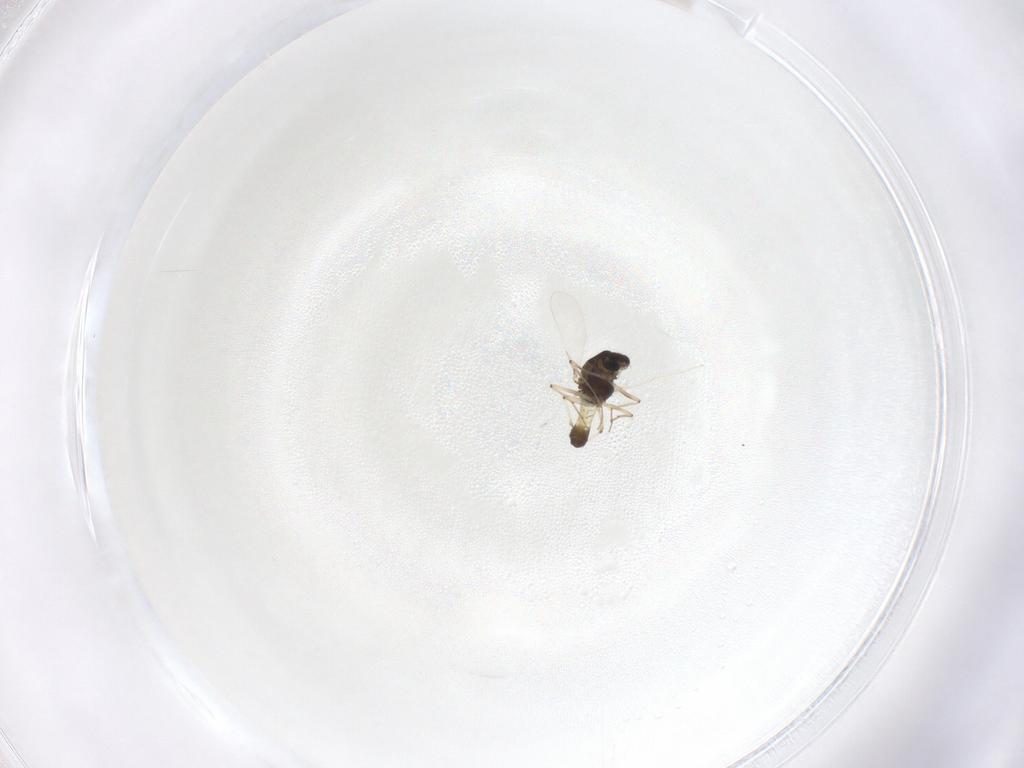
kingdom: Animalia
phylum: Arthropoda
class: Insecta
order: Diptera
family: Chironomidae
